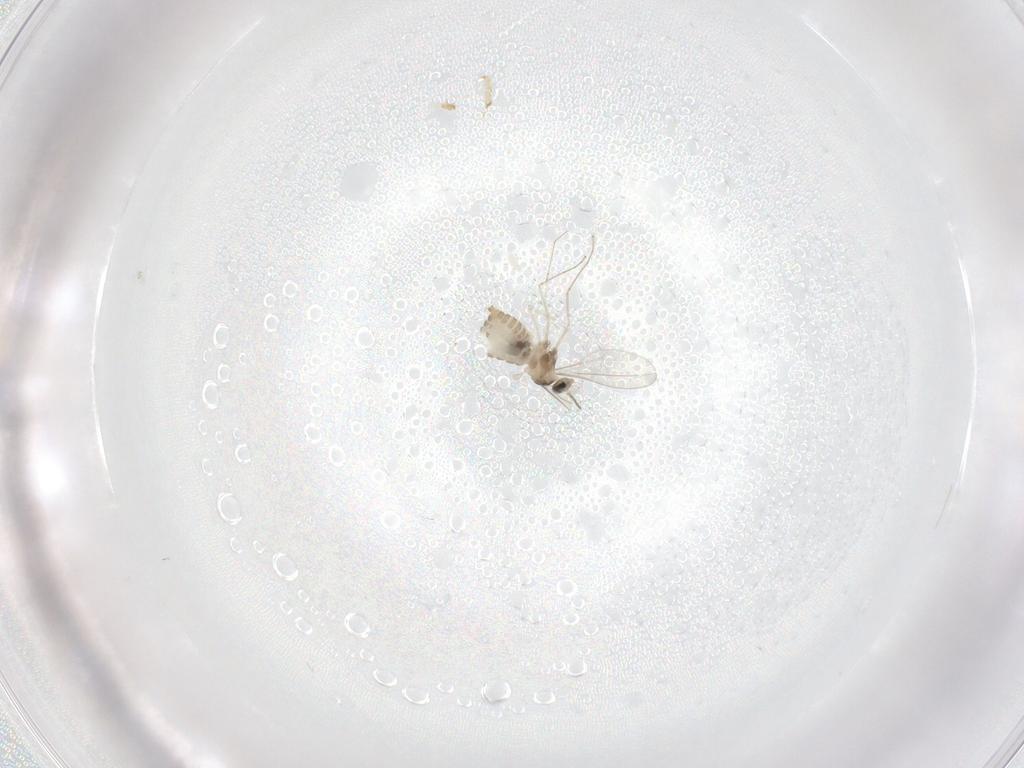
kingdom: Animalia
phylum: Arthropoda
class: Insecta
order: Diptera
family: Cecidomyiidae
